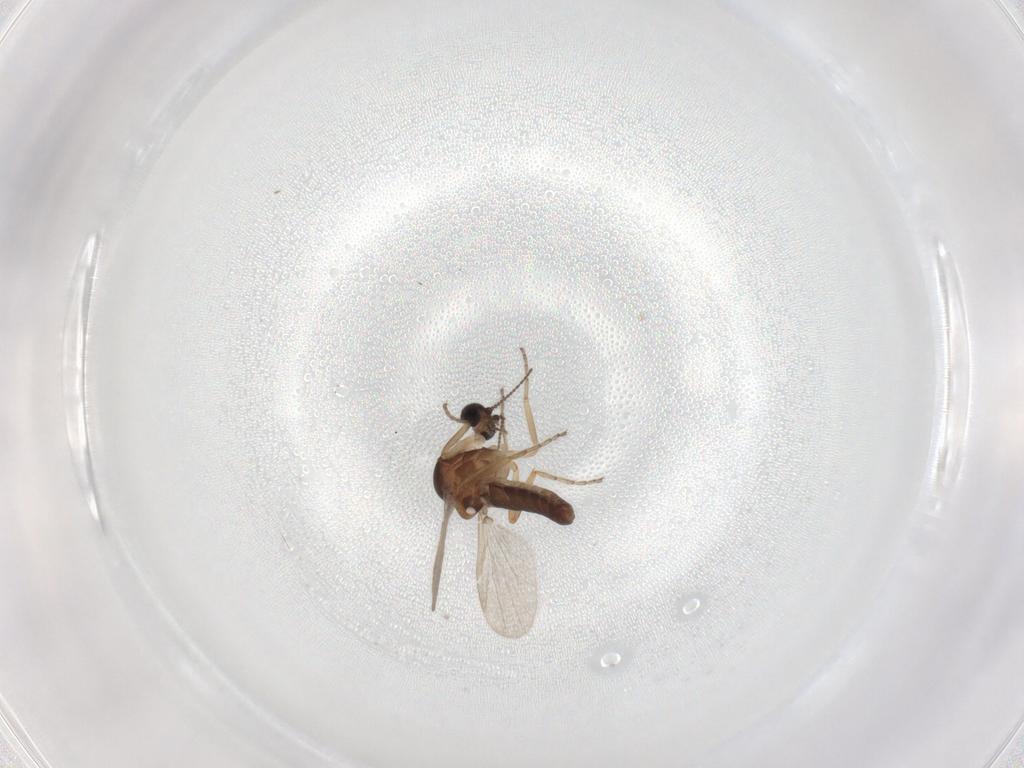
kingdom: Animalia
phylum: Arthropoda
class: Insecta
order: Diptera
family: Ceratopogonidae
